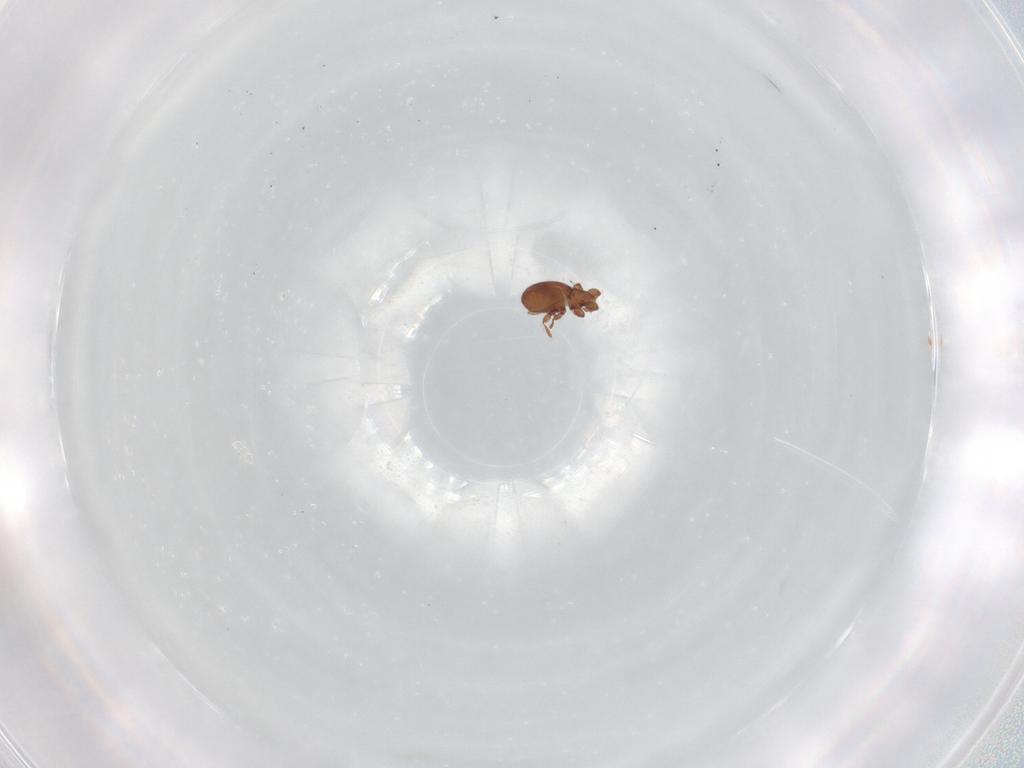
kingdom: Animalia
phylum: Arthropoda
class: Arachnida
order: Sarcoptiformes
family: Eremaeidae
